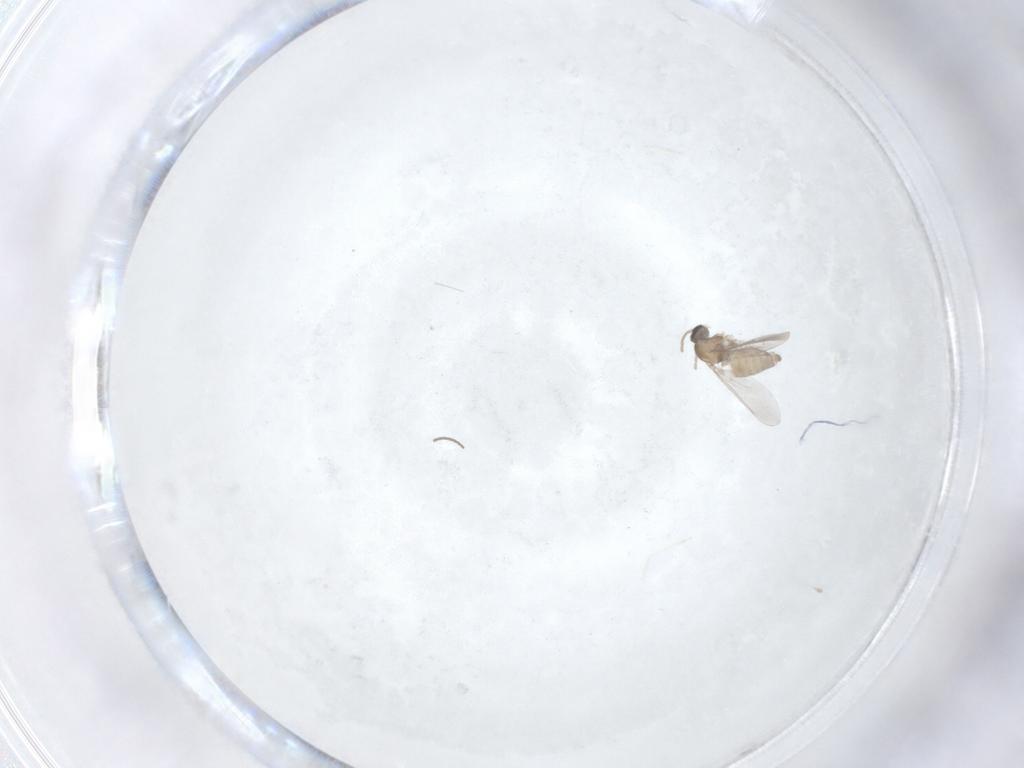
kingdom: Animalia
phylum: Arthropoda
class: Insecta
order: Diptera
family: Cecidomyiidae
